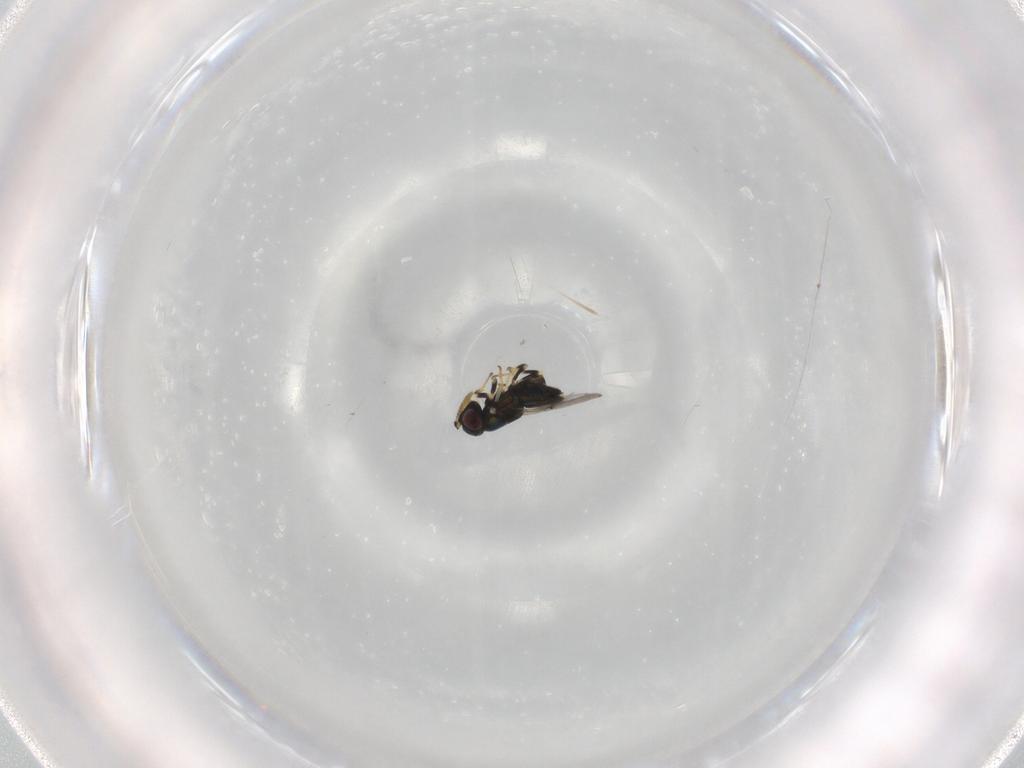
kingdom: Animalia
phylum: Arthropoda
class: Insecta
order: Hymenoptera
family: Encyrtidae
